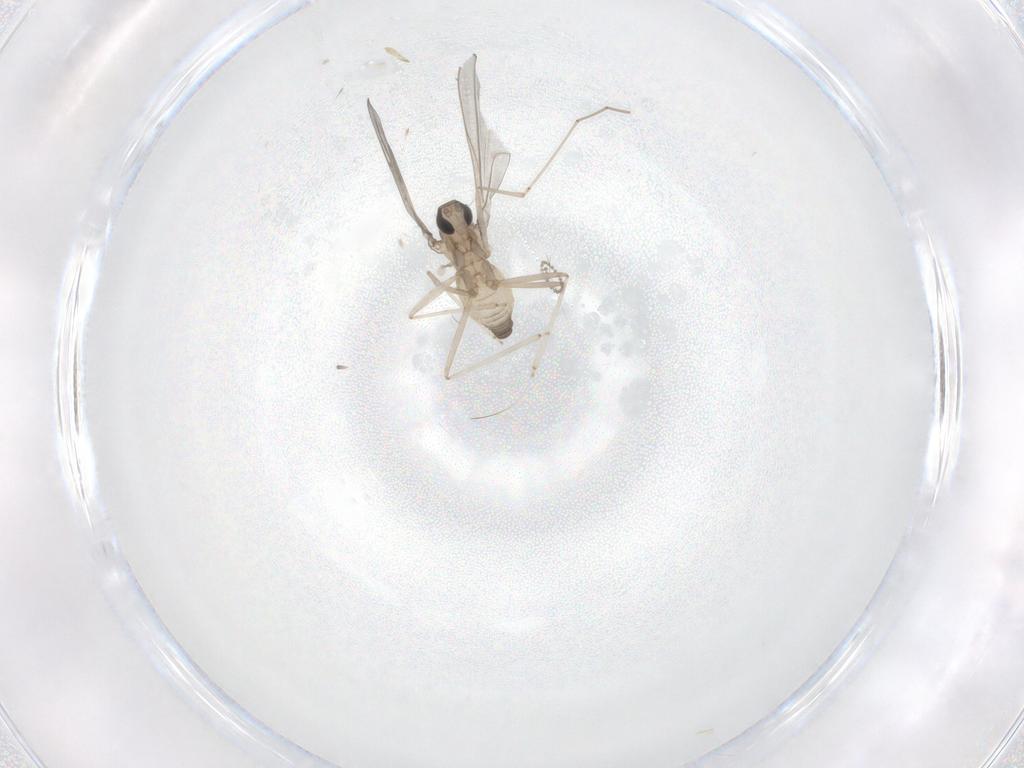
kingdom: Animalia
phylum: Arthropoda
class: Insecta
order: Diptera
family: Cecidomyiidae
